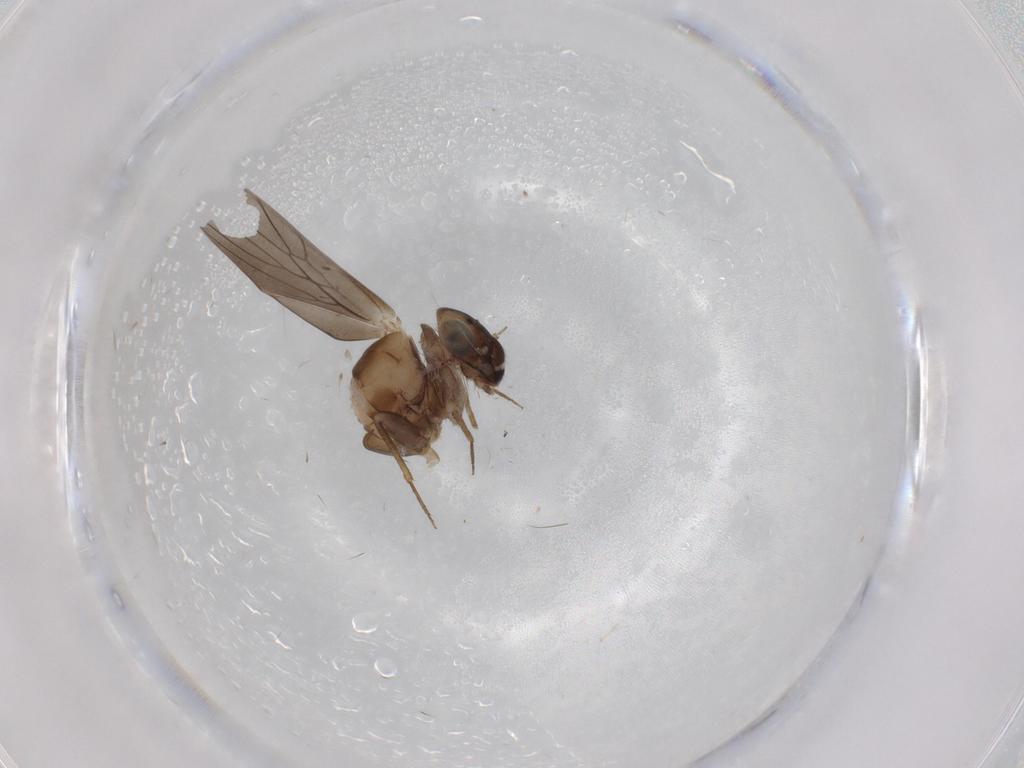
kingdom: Animalia
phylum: Arthropoda
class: Insecta
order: Psocodea
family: Lepidopsocidae
